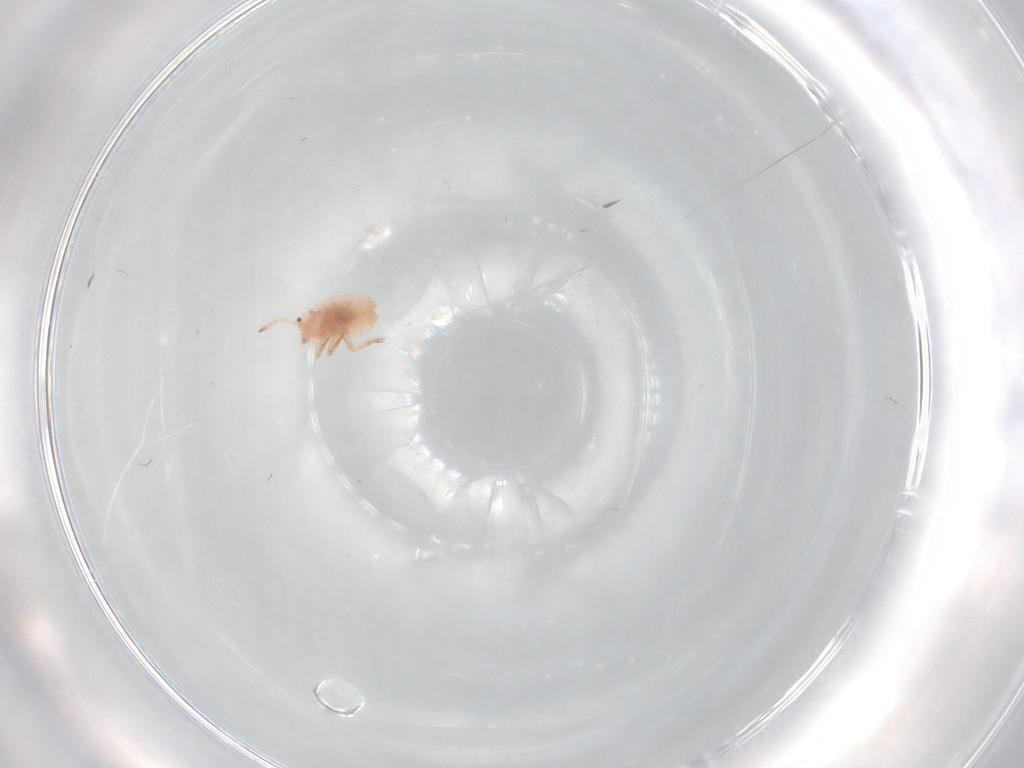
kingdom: Animalia
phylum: Arthropoda
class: Insecta
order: Hemiptera
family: Coccoidea_incertae_sedis
